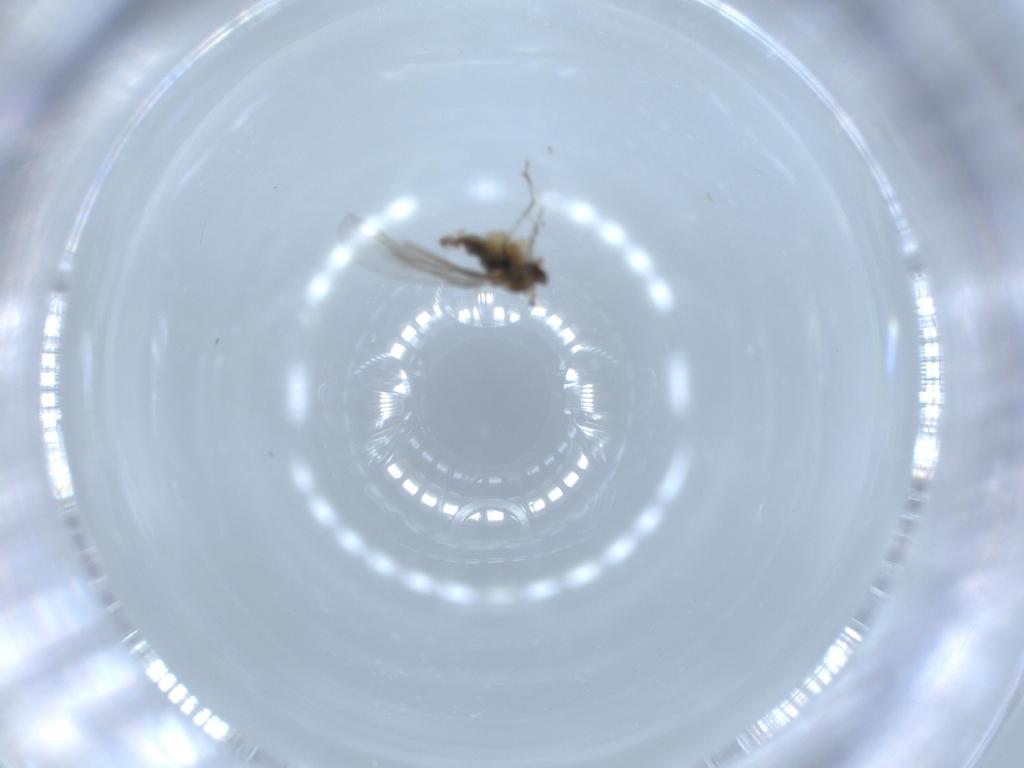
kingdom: Animalia
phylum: Arthropoda
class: Insecta
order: Diptera
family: Cecidomyiidae
